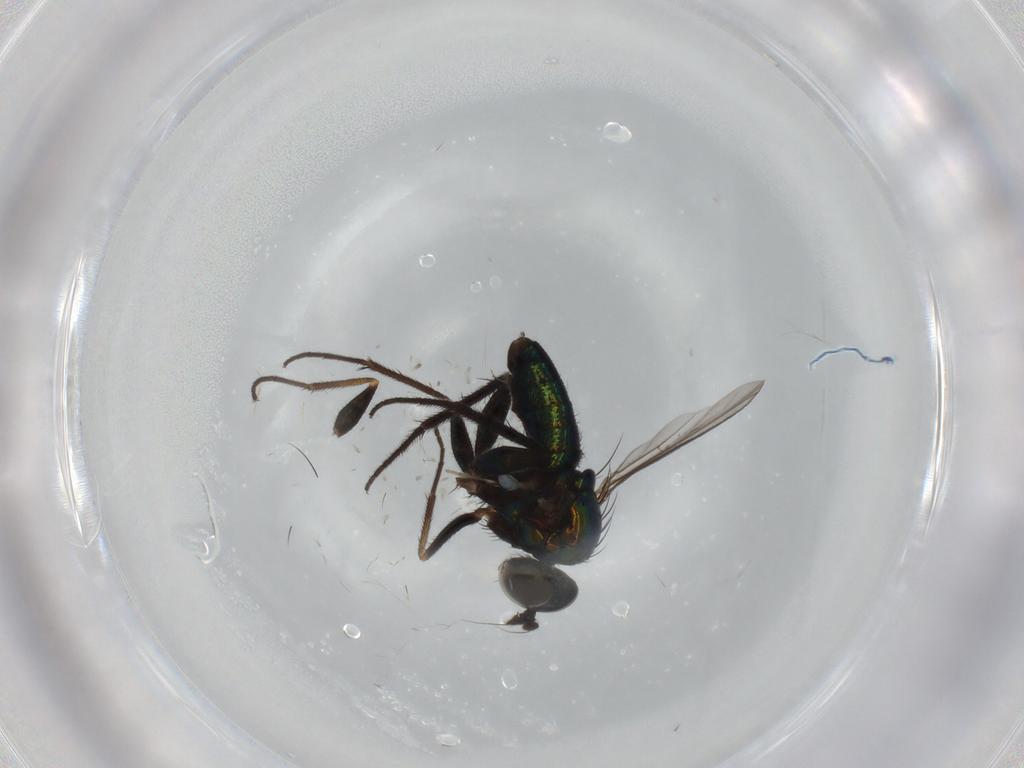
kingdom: Animalia
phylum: Arthropoda
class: Insecta
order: Diptera
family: Dolichopodidae
